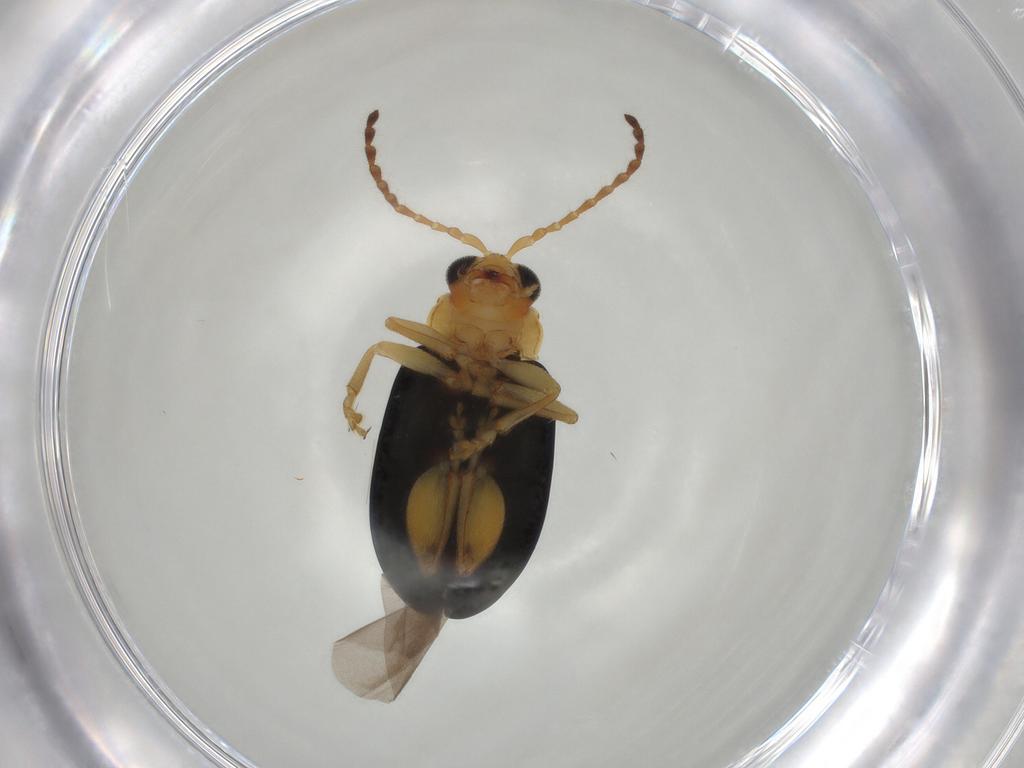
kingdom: Animalia
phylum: Arthropoda
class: Insecta
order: Coleoptera
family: Chrysomelidae
